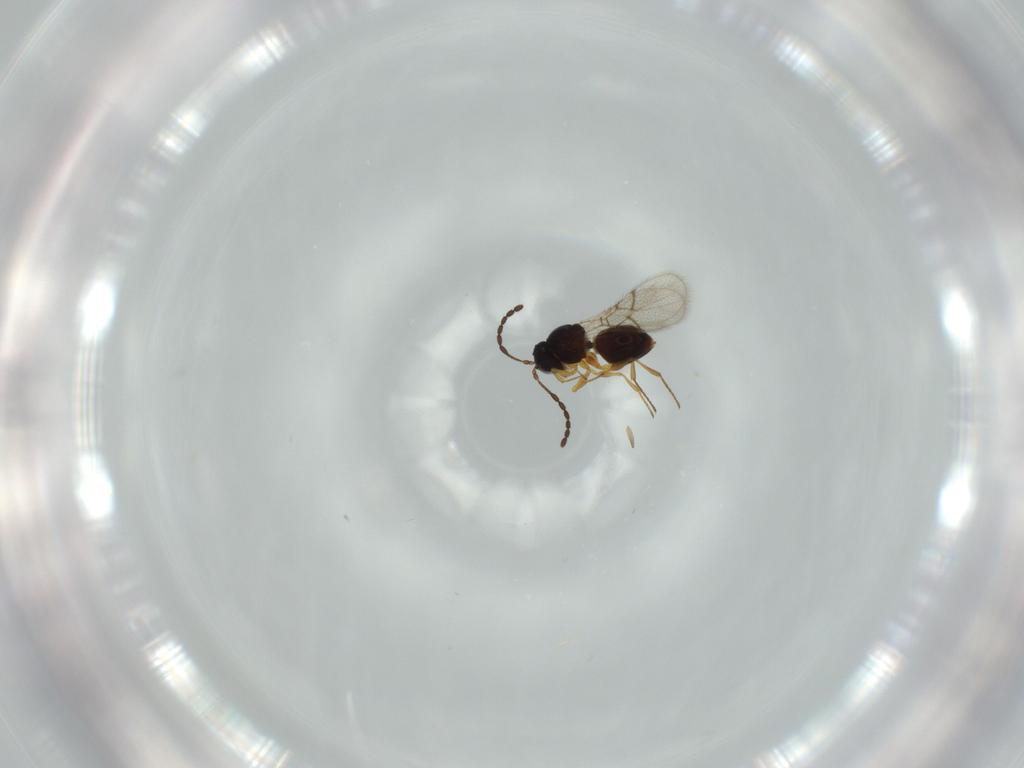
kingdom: Animalia
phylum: Arthropoda
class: Insecta
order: Hymenoptera
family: Figitidae
